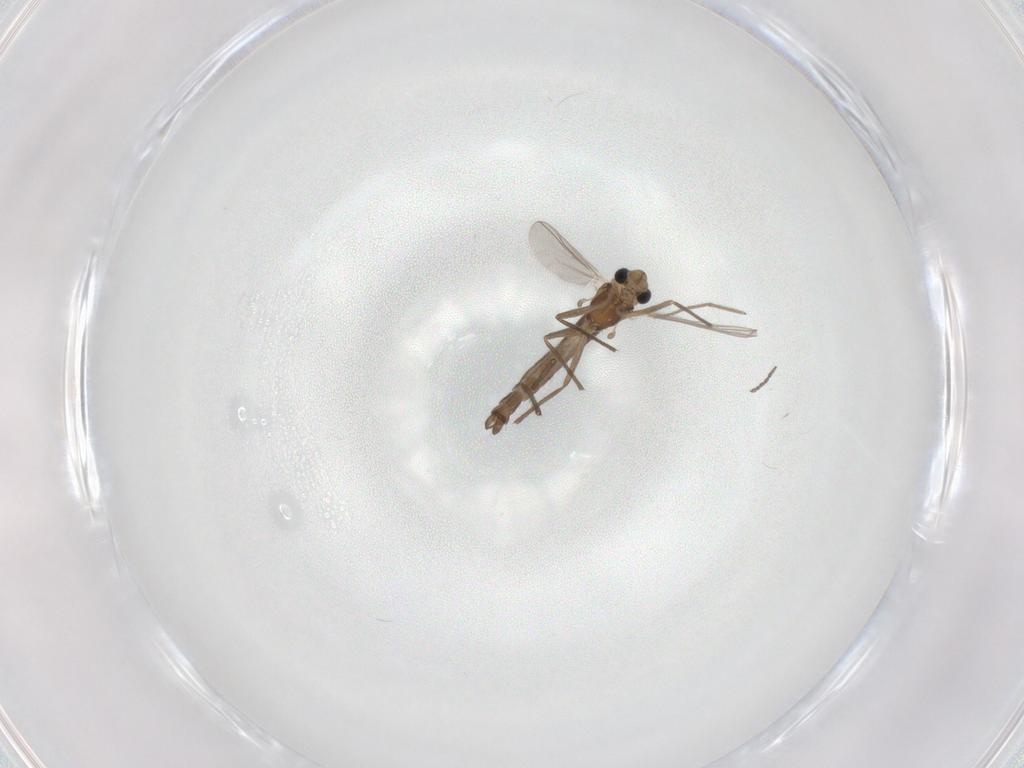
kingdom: Animalia
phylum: Arthropoda
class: Insecta
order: Diptera
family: Chironomidae
